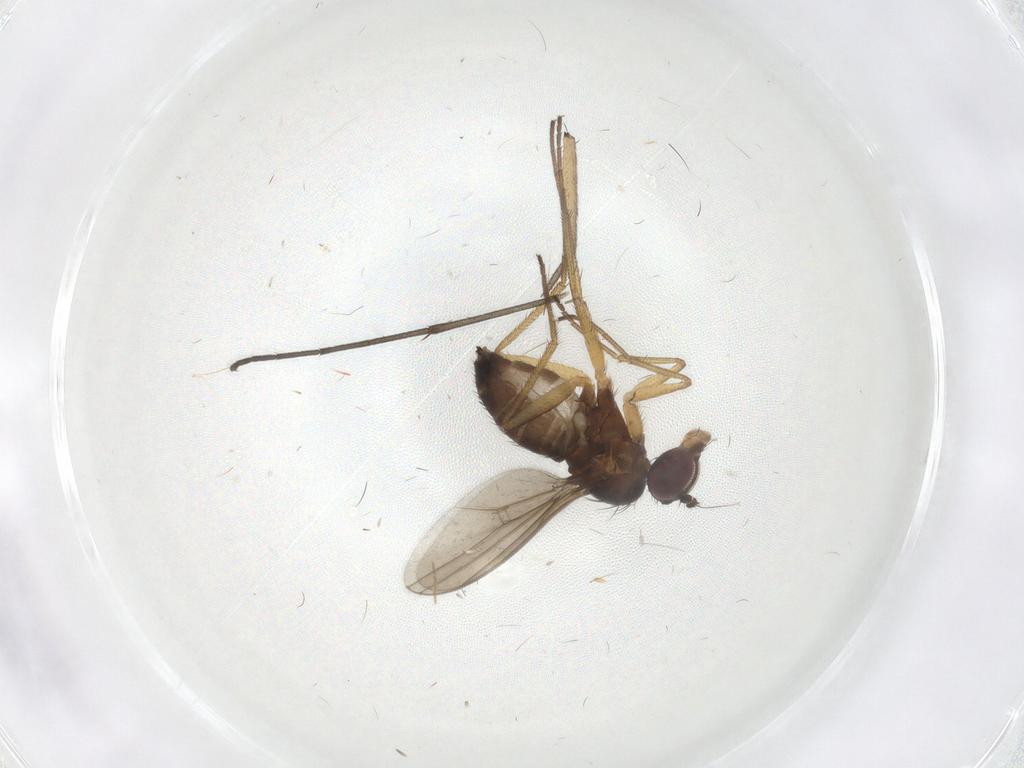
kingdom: Animalia
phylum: Arthropoda
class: Insecta
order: Diptera
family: Dolichopodidae
